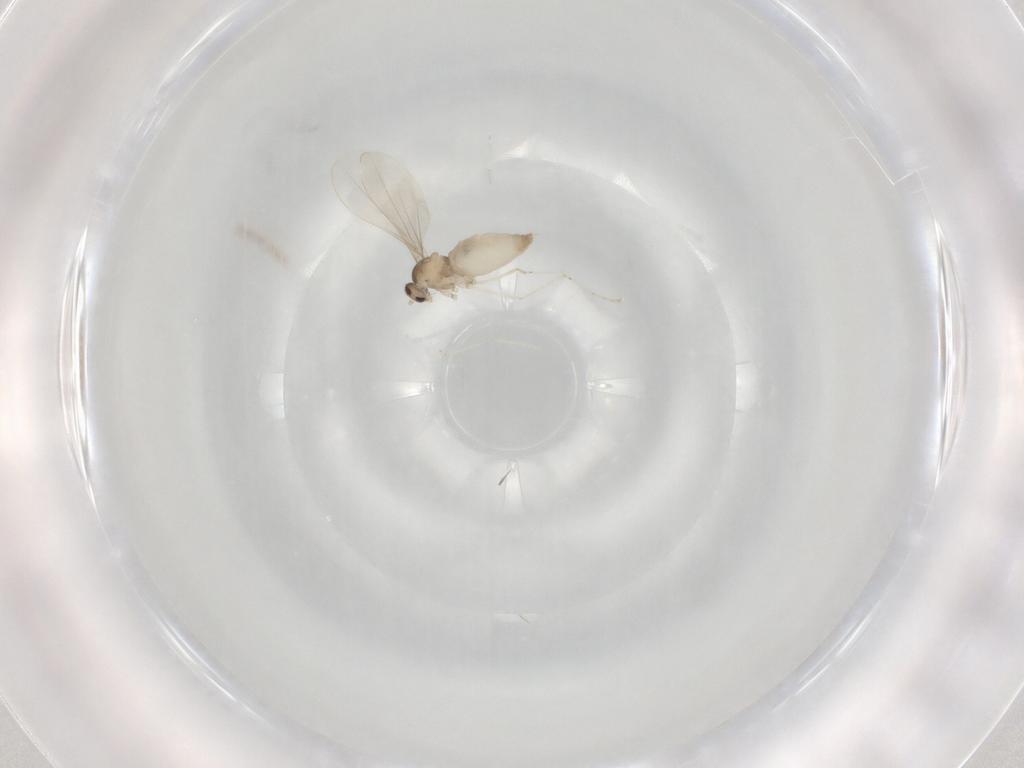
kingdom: Animalia
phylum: Arthropoda
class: Insecta
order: Diptera
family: Cecidomyiidae
